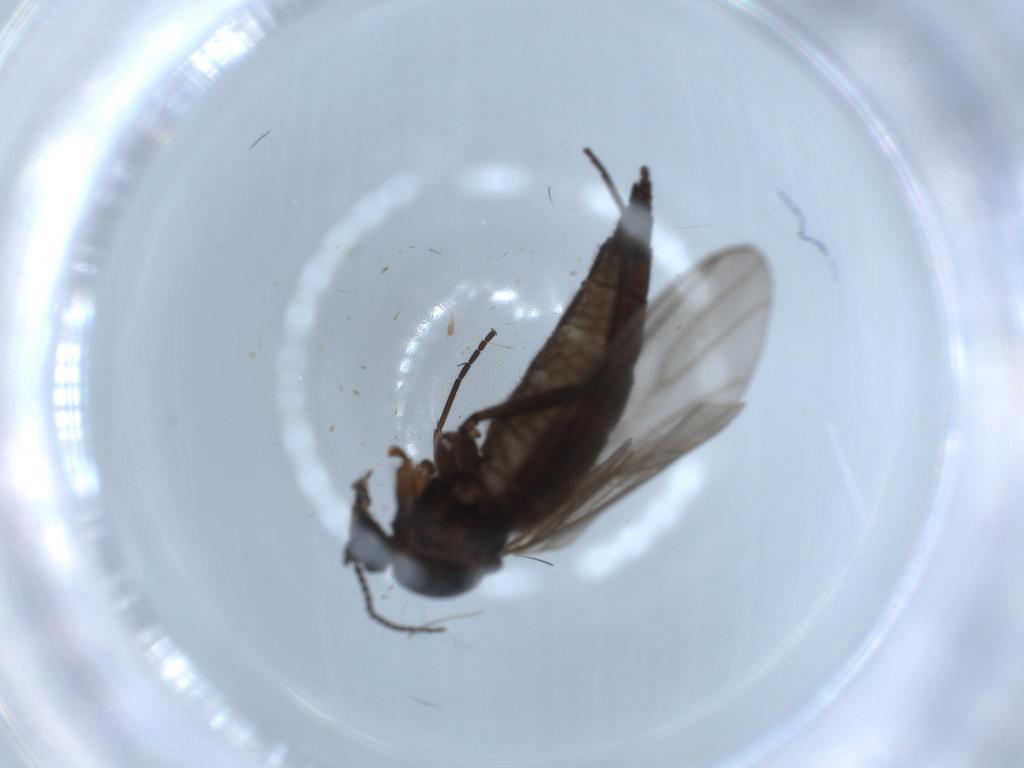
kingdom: Animalia
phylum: Arthropoda
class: Insecta
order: Diptera
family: Sciaridae
